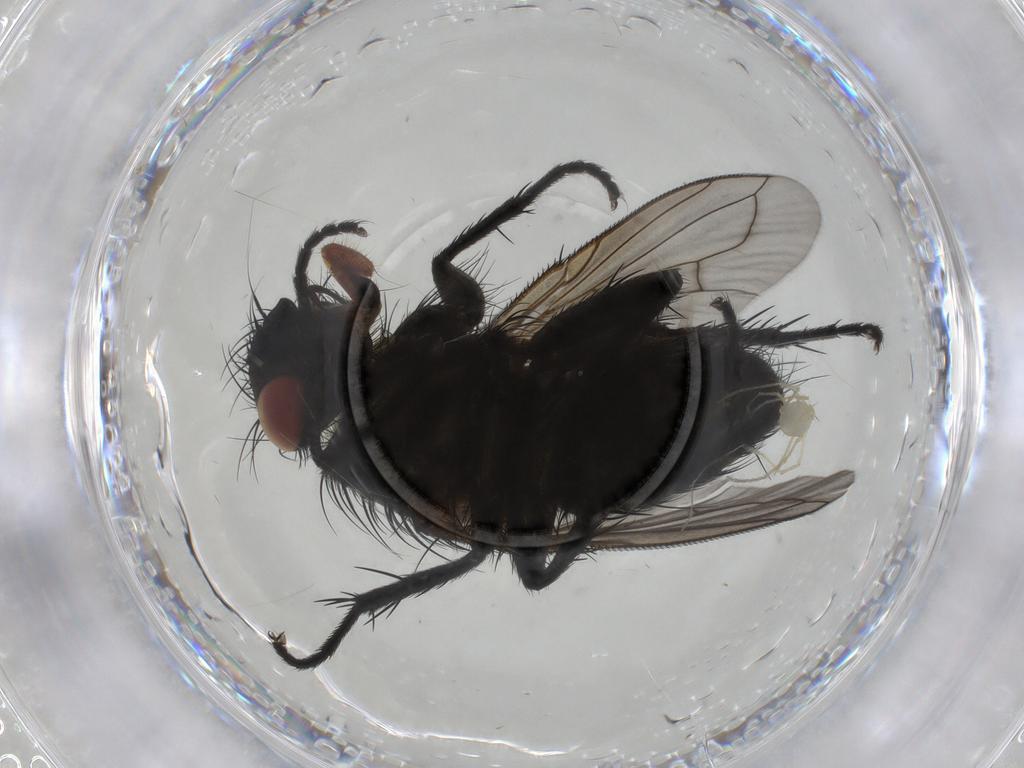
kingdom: Animalia
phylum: Arthropoda
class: Insecta
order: Diptera
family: Tachinidae
